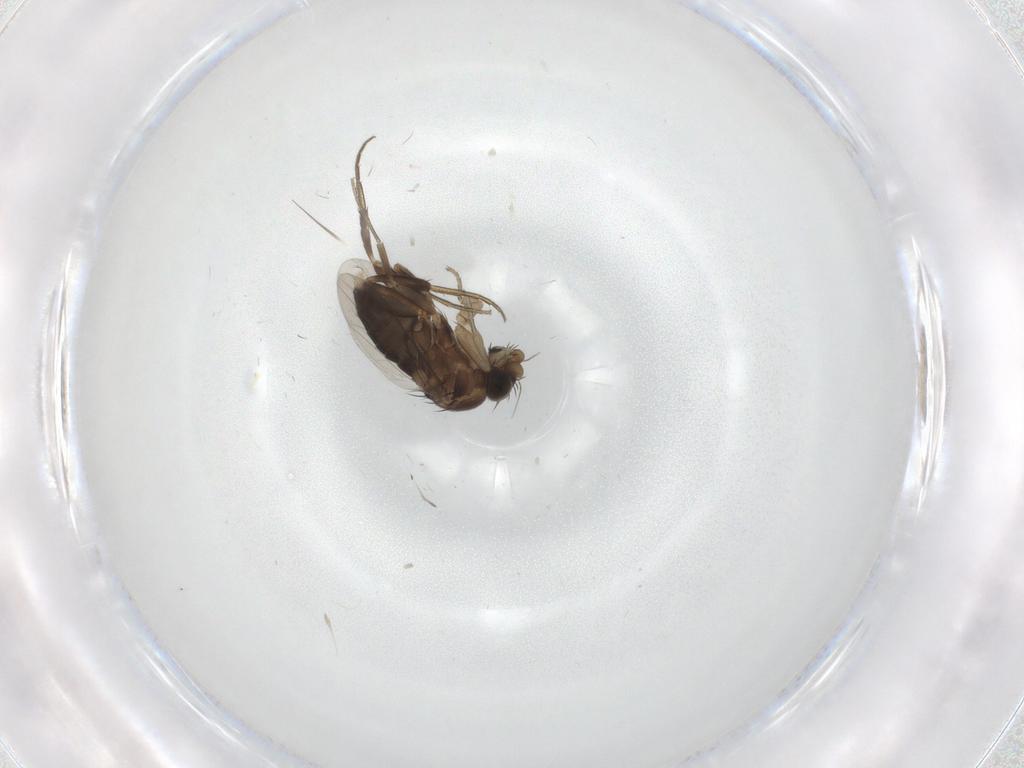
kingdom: Animalia
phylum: Arthropoda
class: Insecta
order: Diptera
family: Phoridae
